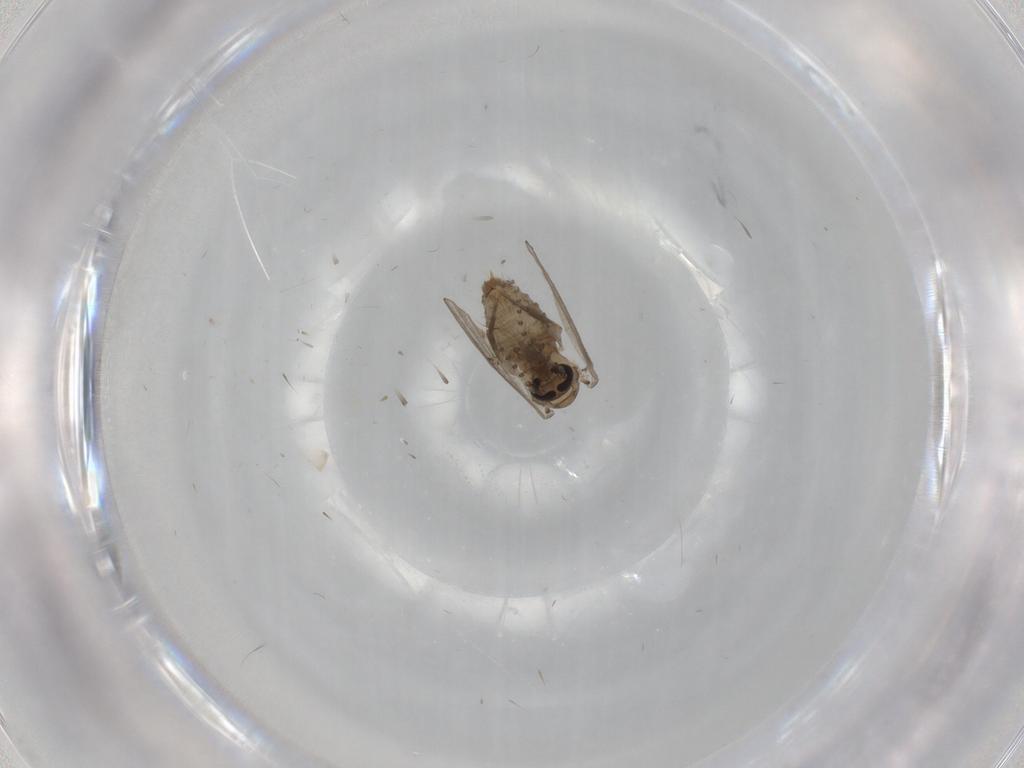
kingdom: Animalia
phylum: Arthropoda
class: Insecta
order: Diptera
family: Psychodidae
